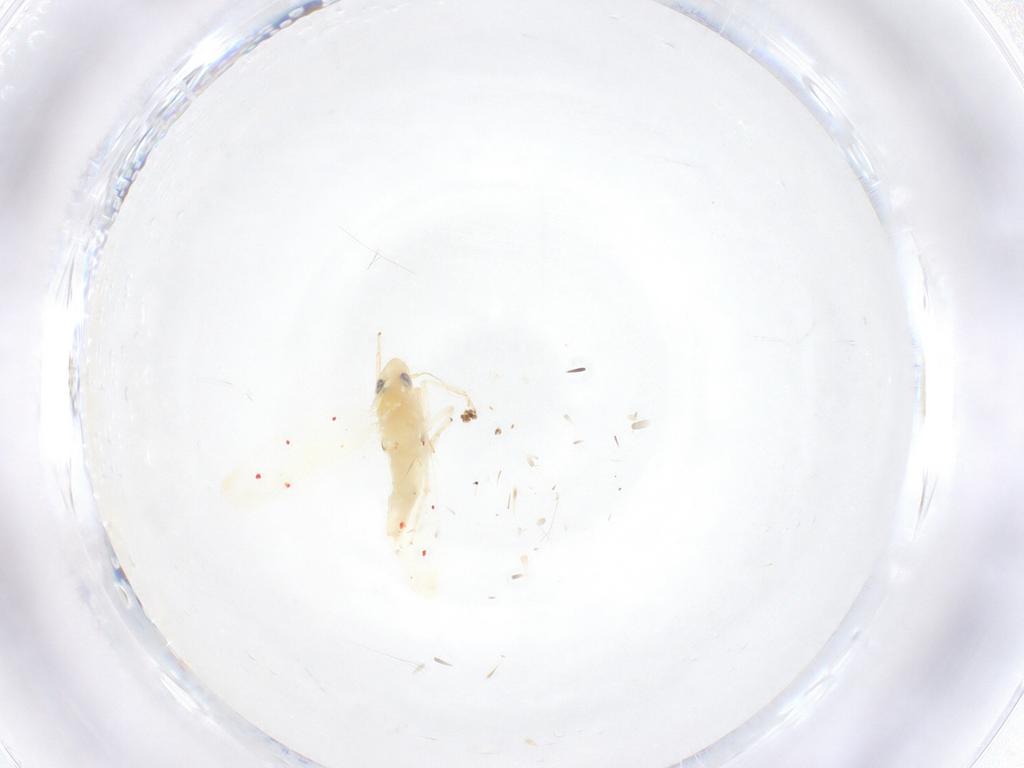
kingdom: Animalia
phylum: Arthropoda
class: Insecta
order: Hemiptera
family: Cicadellidae
